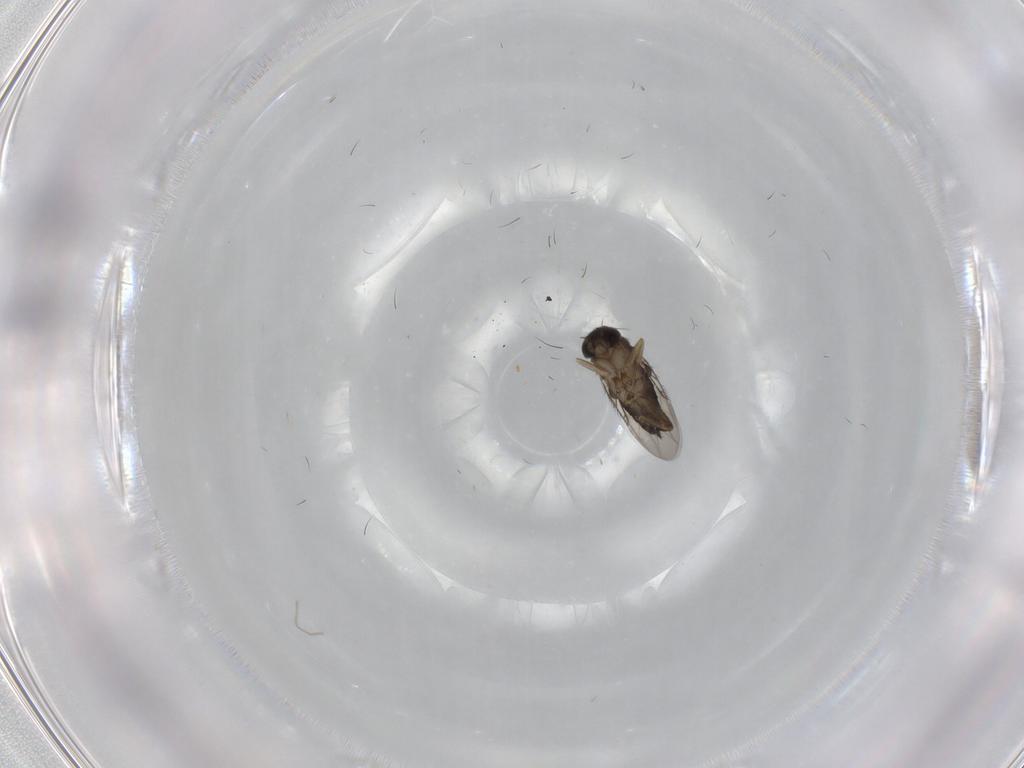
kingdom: Animalia
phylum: Arthropoda
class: Insecta
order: Diptera
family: Phoridae
